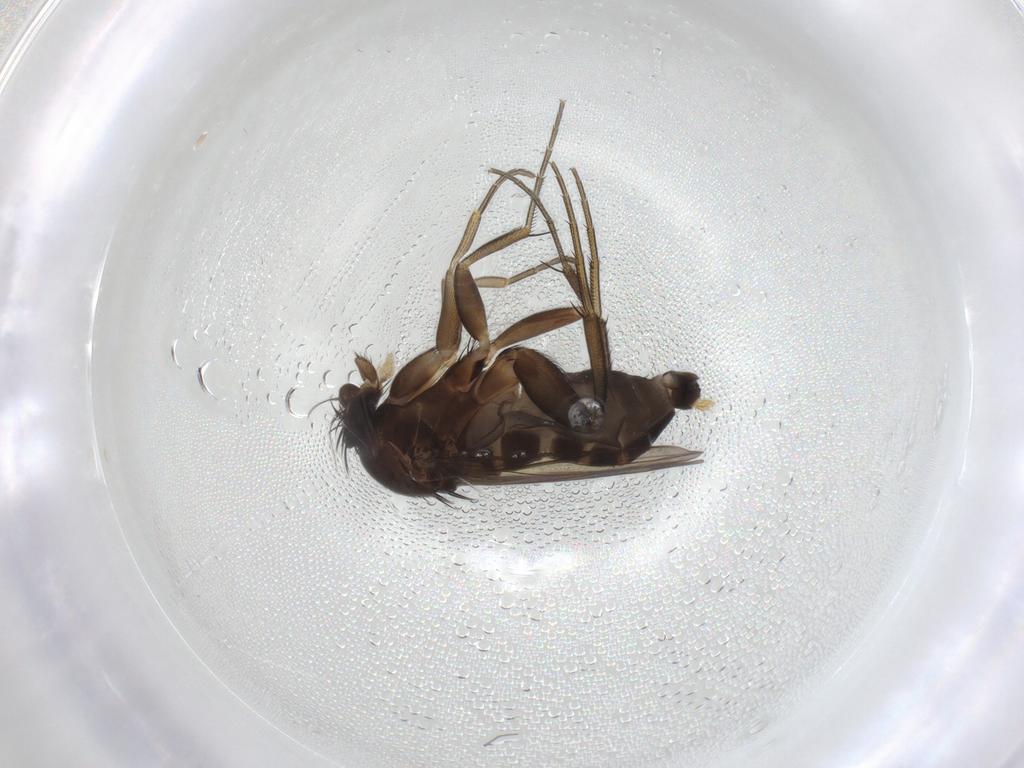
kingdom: Animalia
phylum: Arthropoda
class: Insecta
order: Diptera
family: Phoridae
